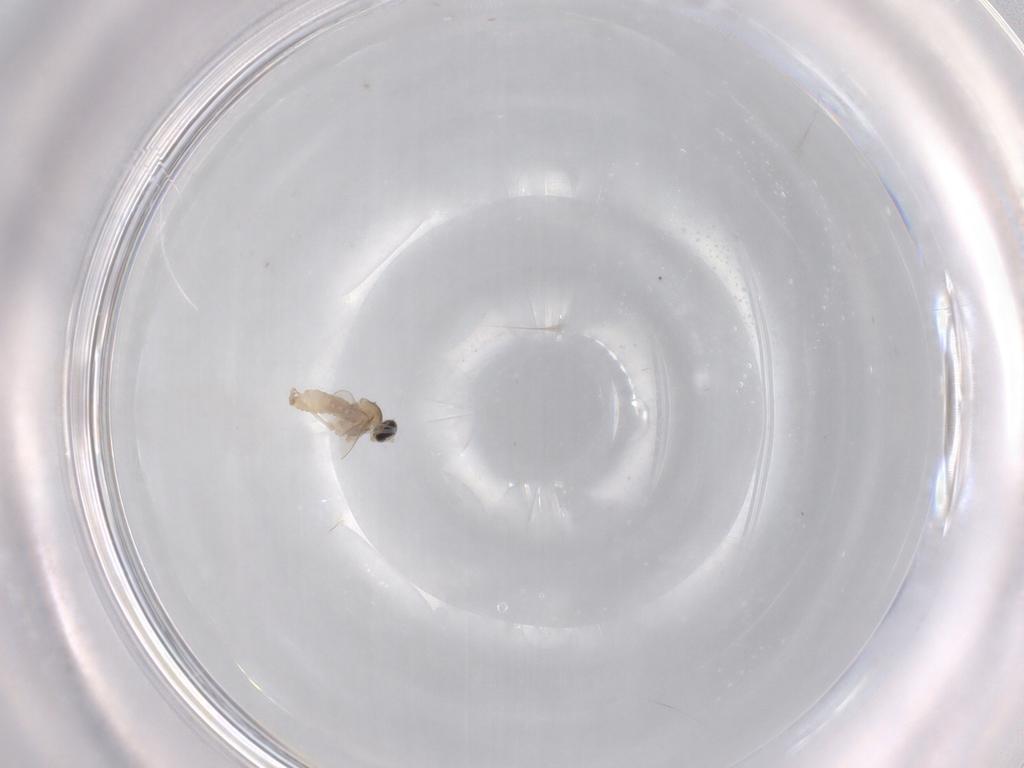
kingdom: Animalia
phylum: Arthropoda
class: Insecta
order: Diptera
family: Cecidomyiidae
